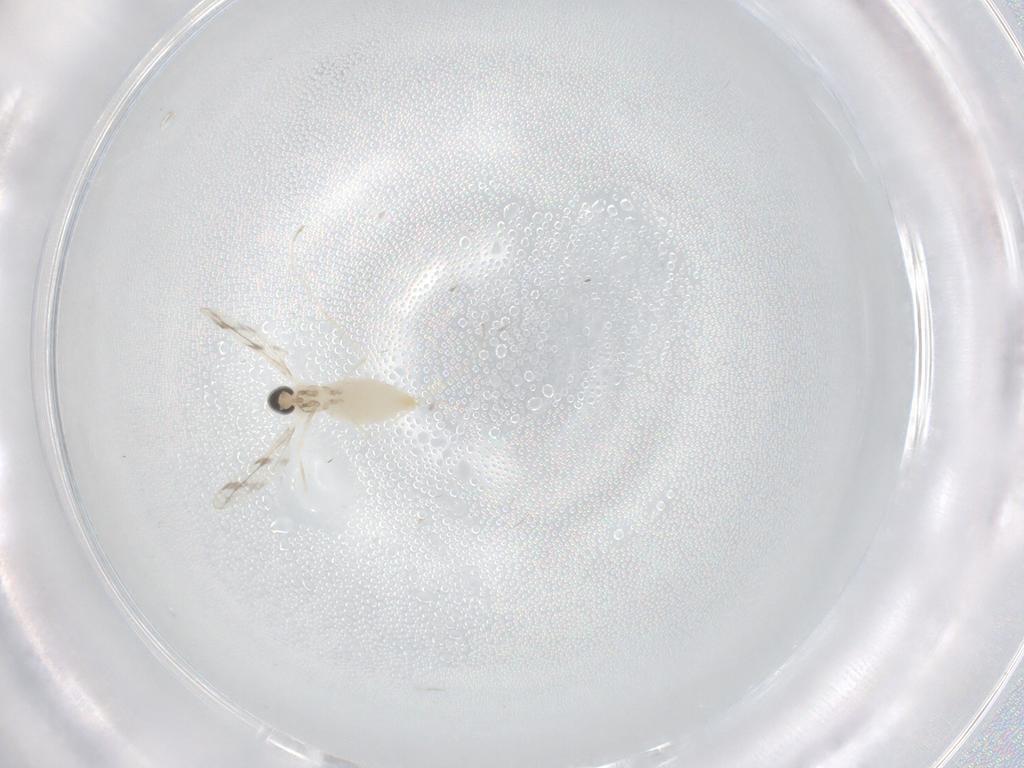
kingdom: Animalia
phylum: Arthropoda
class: Insecta
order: Diptera
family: Cecidomyiidae
